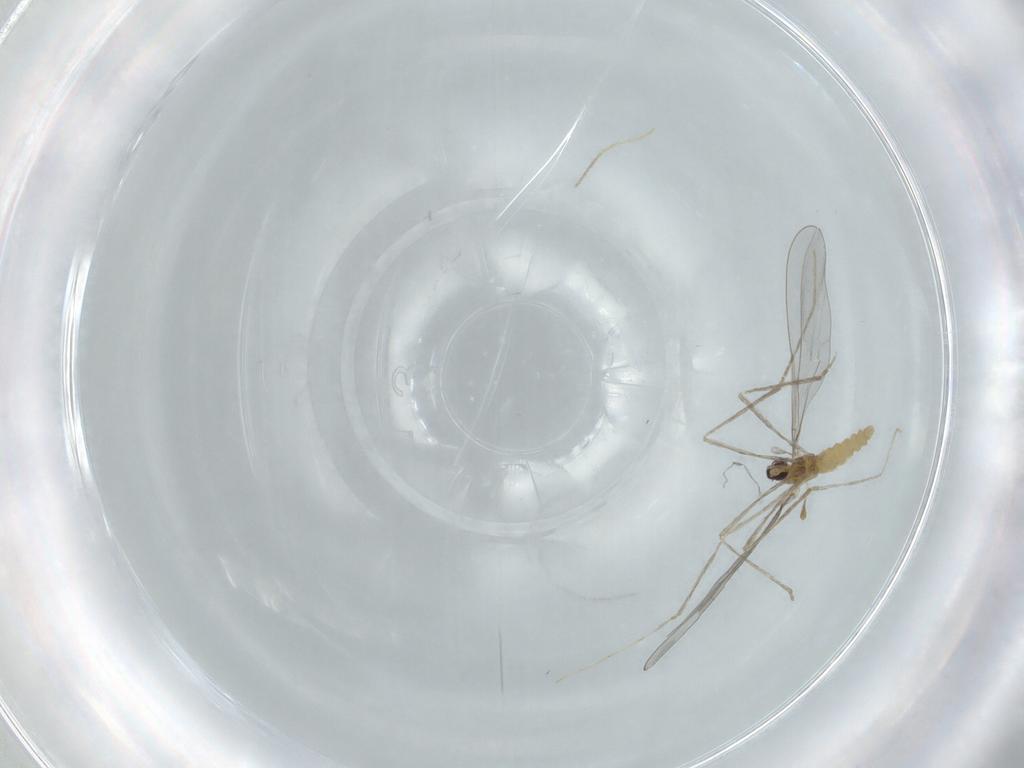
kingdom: Animalia
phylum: Arthropoda
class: Insecta
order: Diptera
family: Cecidomyiidae
